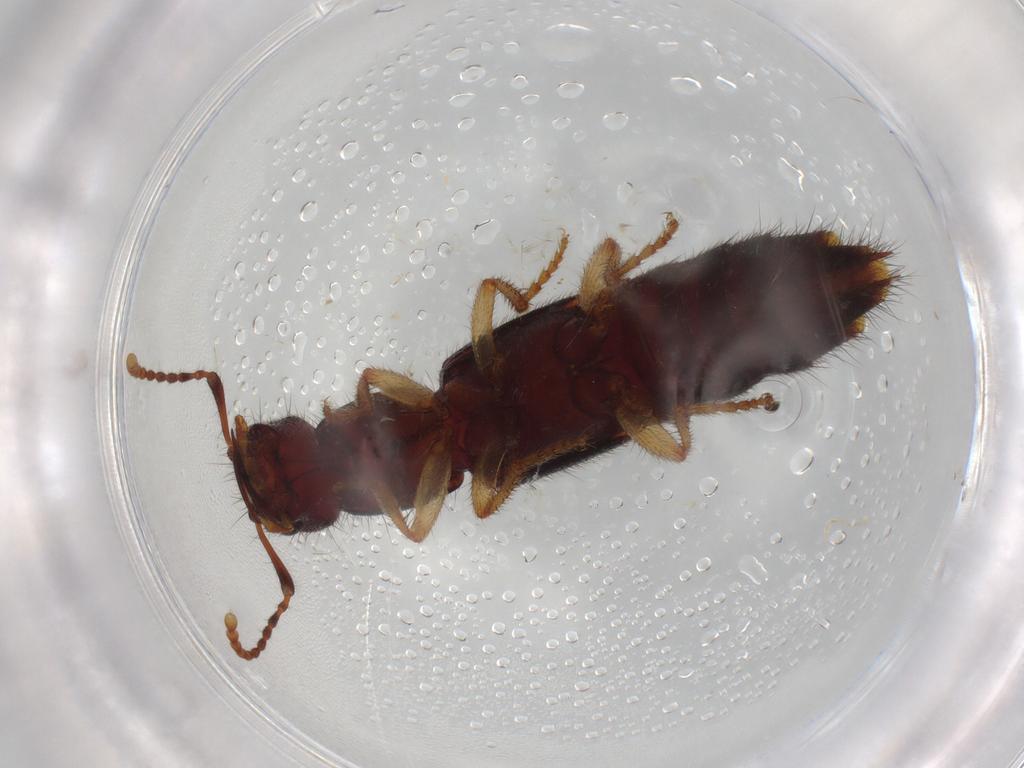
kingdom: Animalia
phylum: Arthropoda
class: Insecta
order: Coleoptera
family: Staphylinidae
